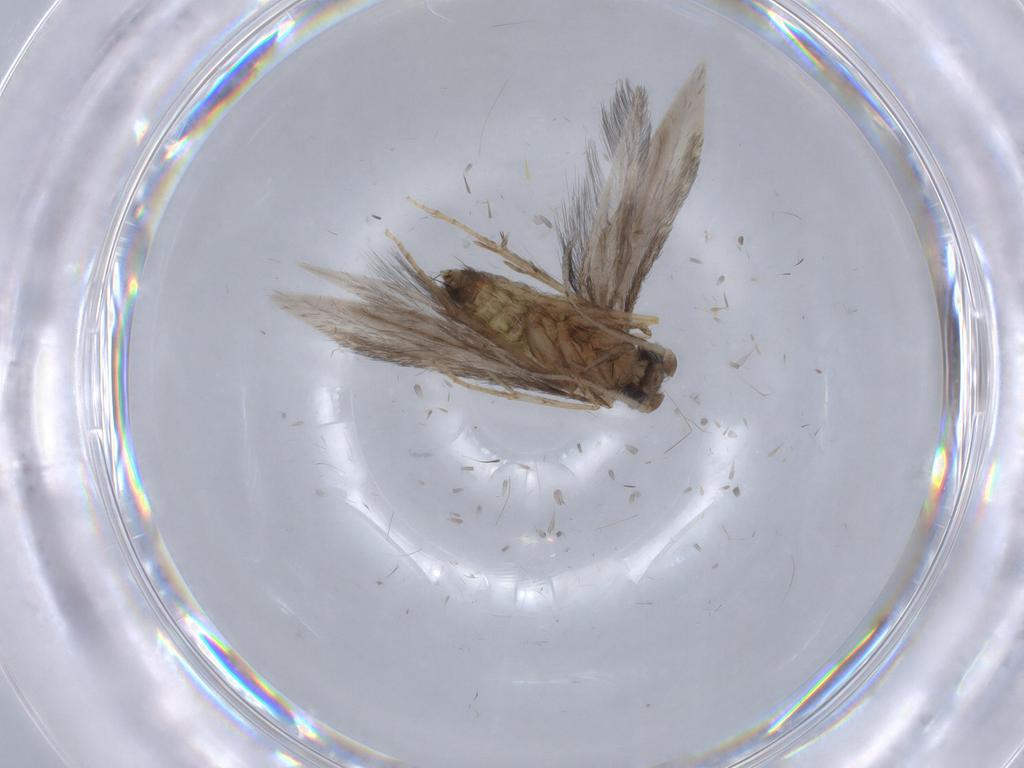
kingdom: Animalia
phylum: Arthropoda
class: Insecta
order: Trichoptera
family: Hydroptilidae
